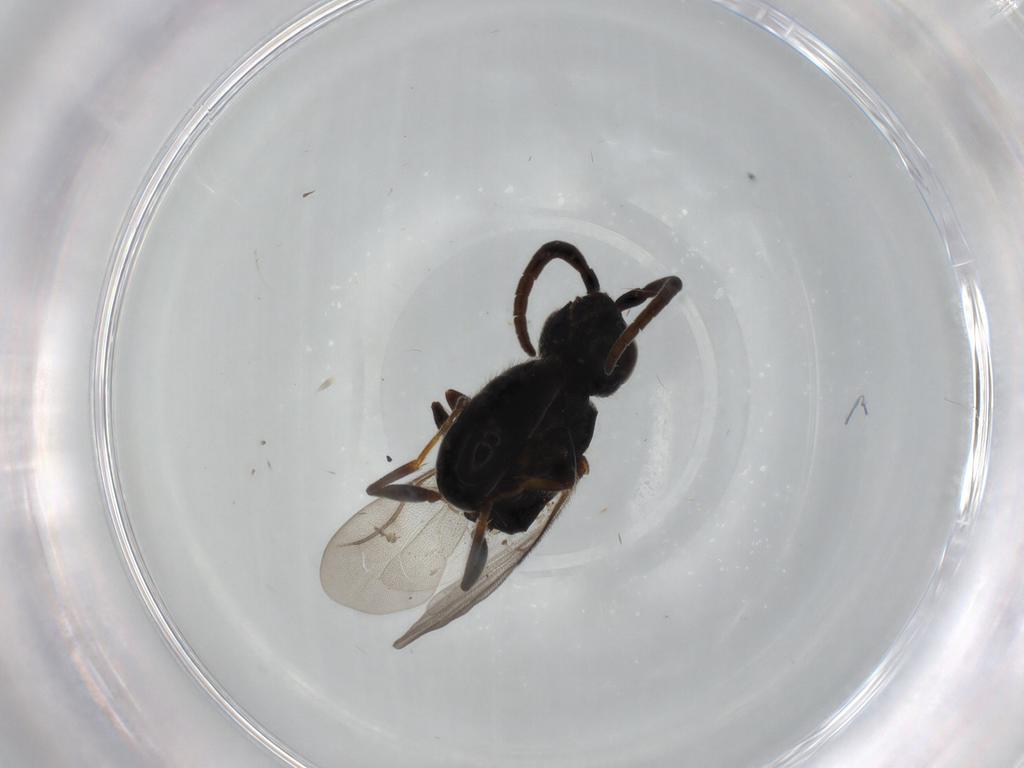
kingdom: Animalia
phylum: Arthropoda
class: Insecta
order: Hymenoptera
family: Bethylidae
